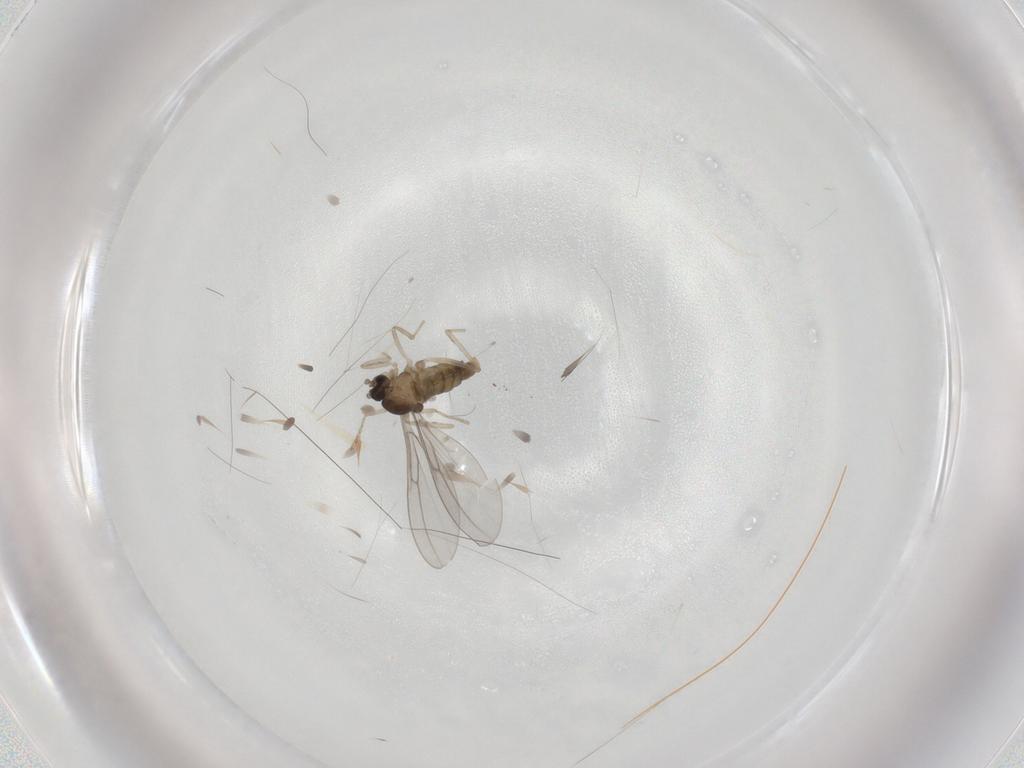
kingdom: Animalia
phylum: Arthropoda
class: Insecta
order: Diptera
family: Cecidomyiidae
